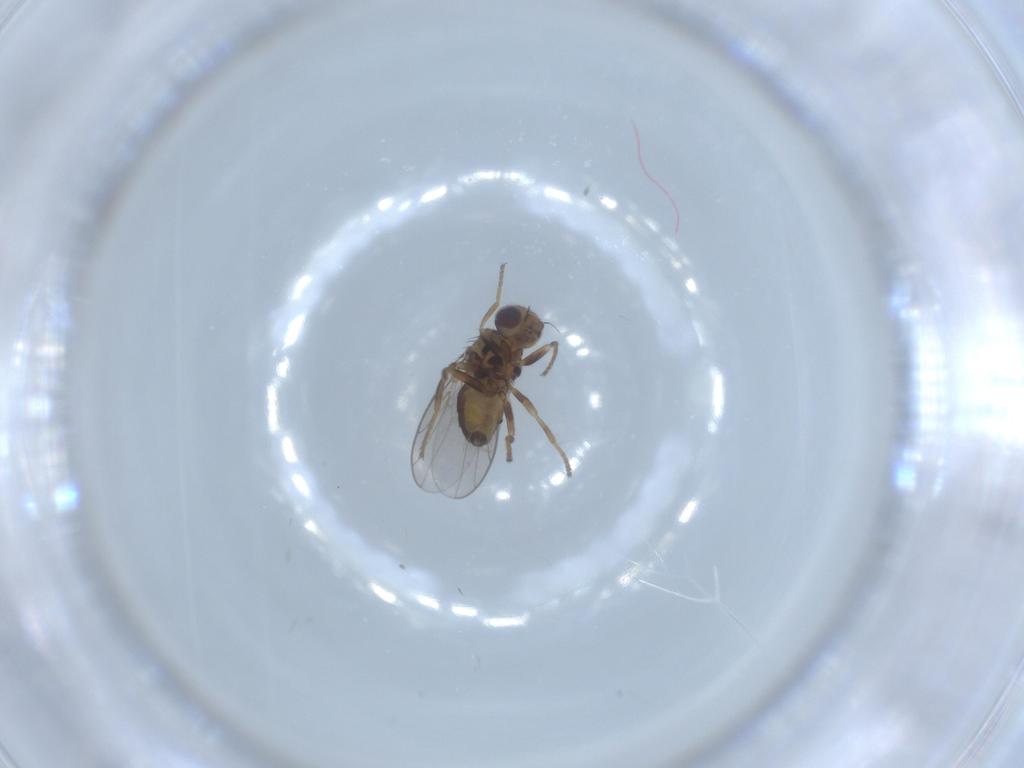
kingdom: Animalia
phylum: Arthropoda
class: Insecta
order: Diptera
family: Chloropidae
